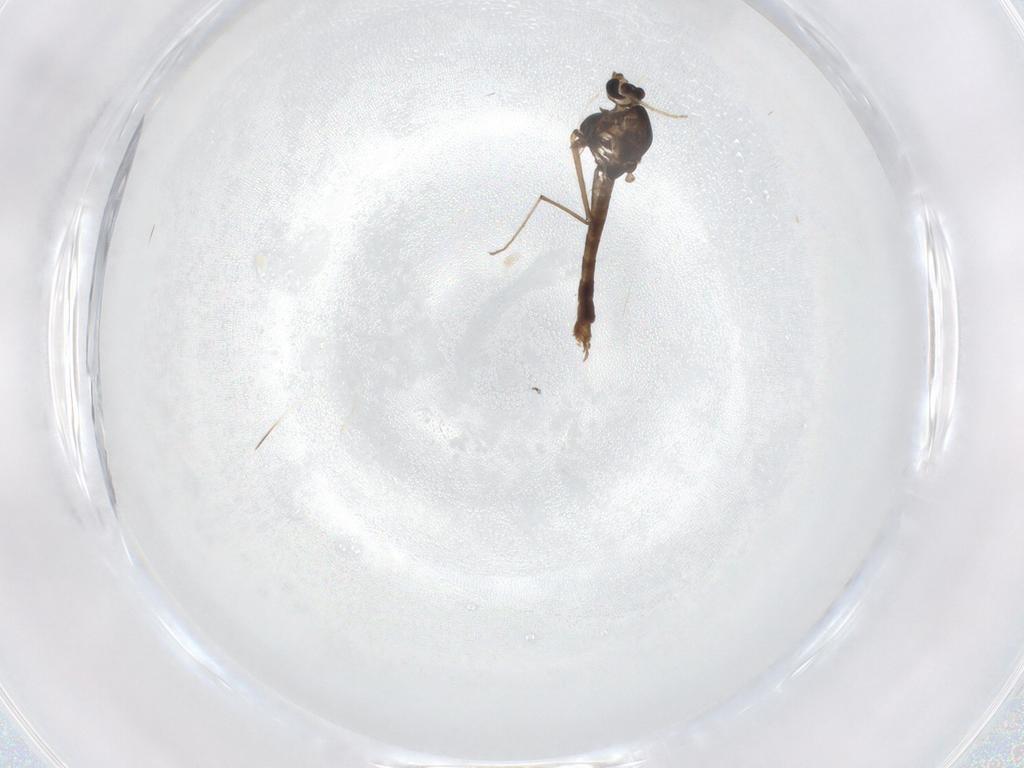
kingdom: Animalia
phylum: Arthropoda
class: Insecta
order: Diptera
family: Chironomidae
